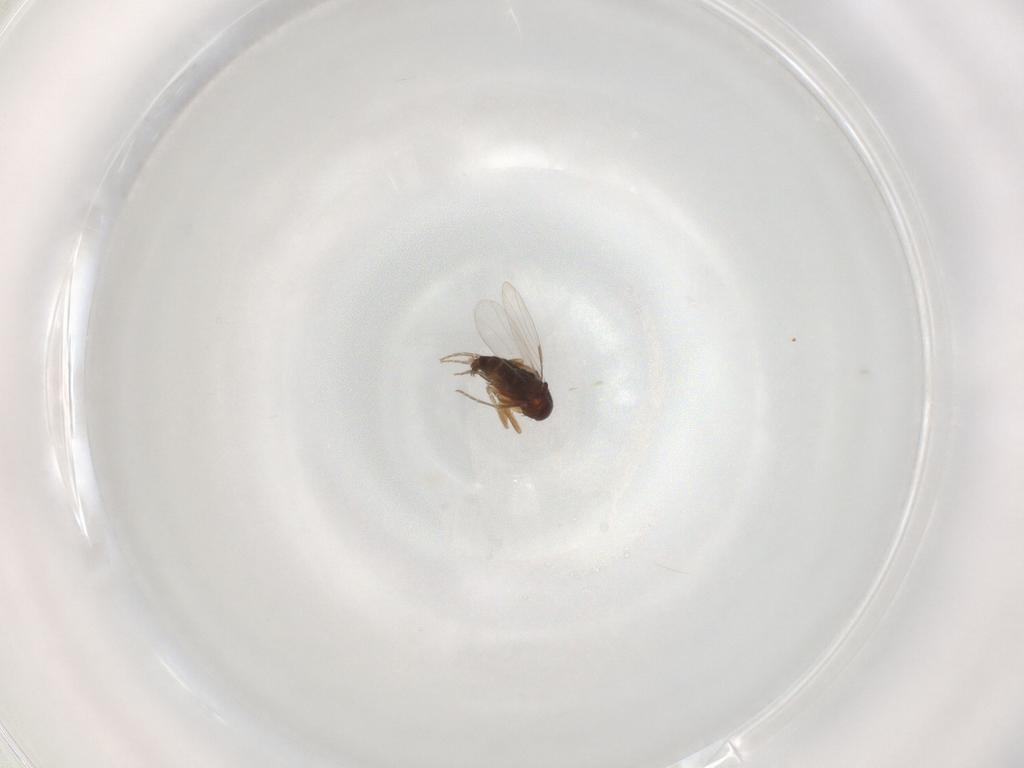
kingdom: Animalia
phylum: Arthropoda
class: Insecta
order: Diptera
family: Phoridae
